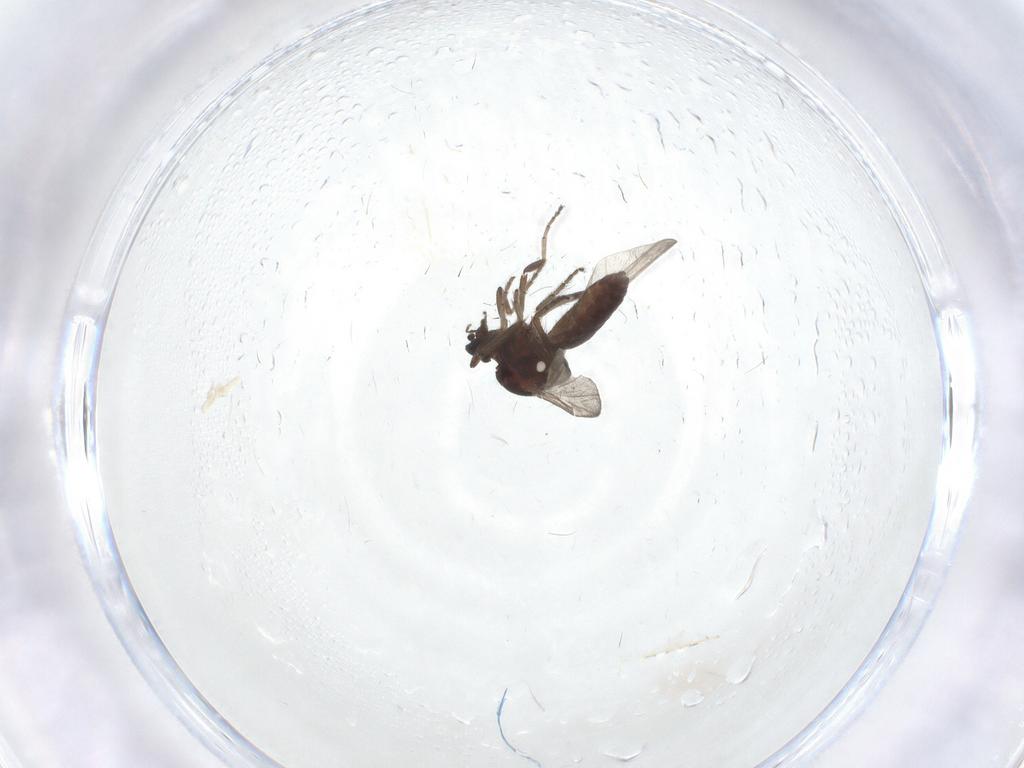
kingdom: Animalia
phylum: Arthropoda
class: Insecta
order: Diptera
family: Ceratopogonidae
